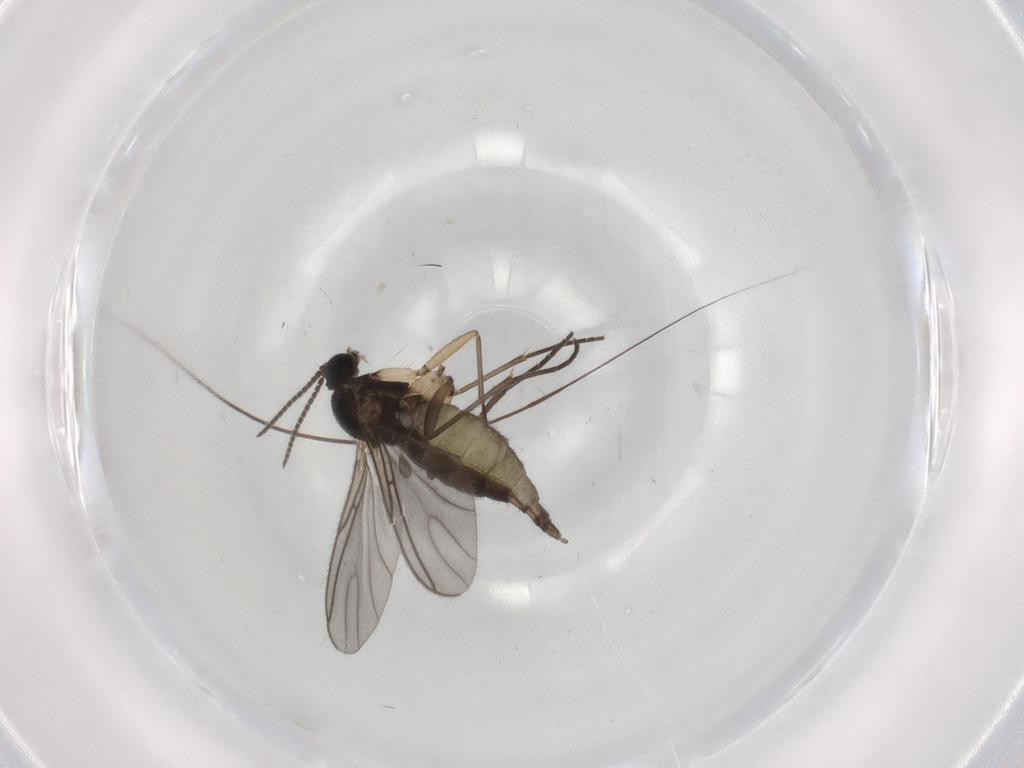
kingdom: Animalia
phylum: Arthropoda
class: Insecta
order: Diptera
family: Sciaridae
